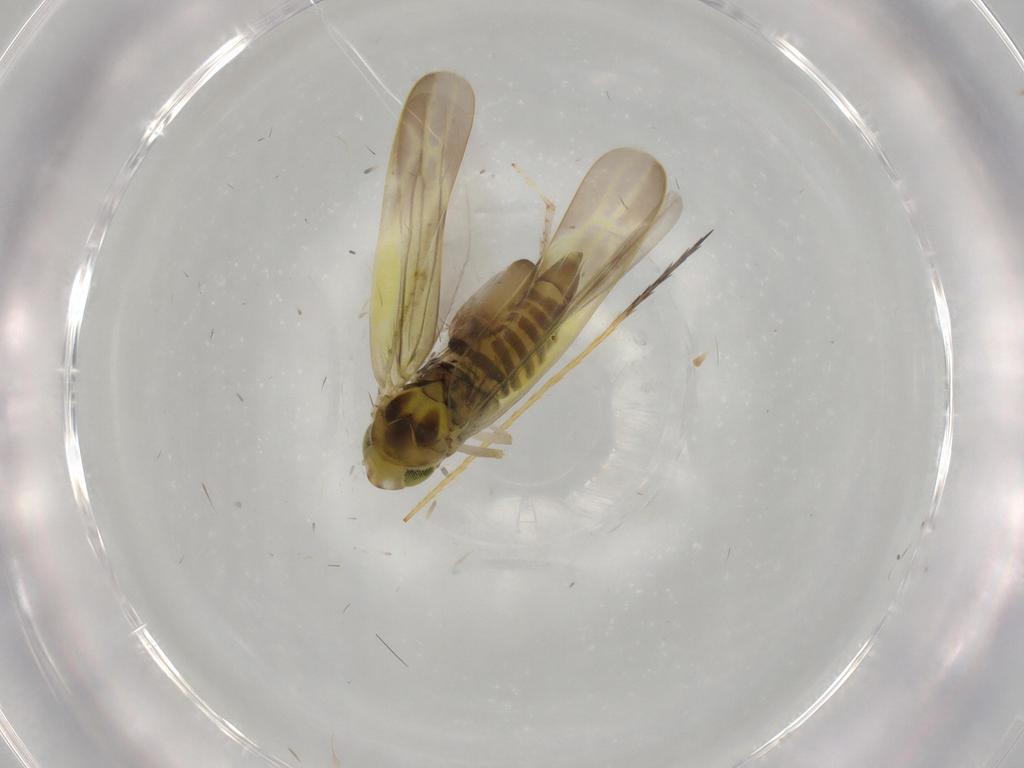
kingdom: Animalia
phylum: Arthropoda
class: Insecta
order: Hemiptera
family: Cicadellidae
